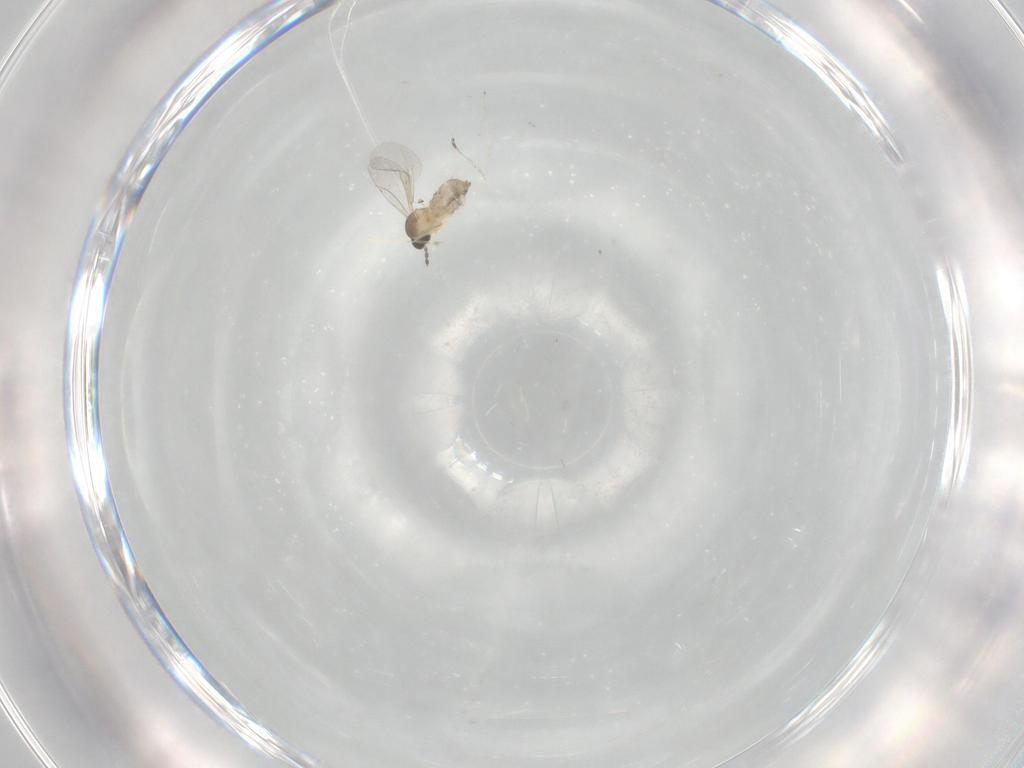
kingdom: Animalia
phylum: Arthropoda
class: Insecta
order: Diptera
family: Cecidomyiidae
